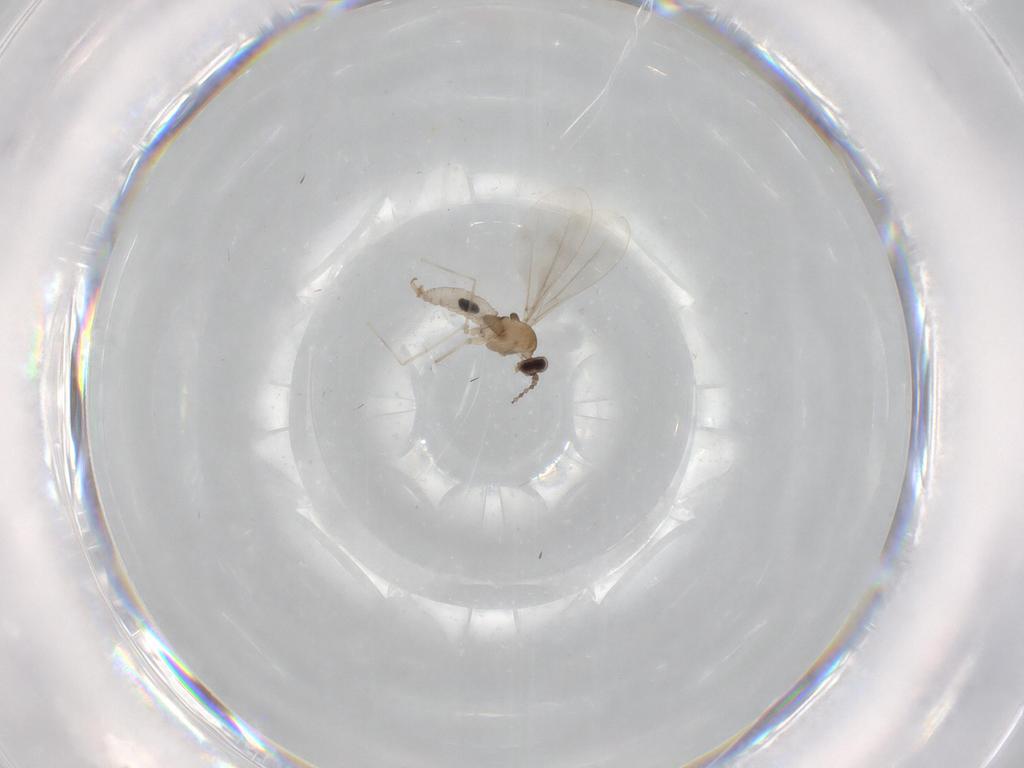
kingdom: Animalia
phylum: Arthropoda
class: Insecta
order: Diptera
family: Cecidomyiidae
